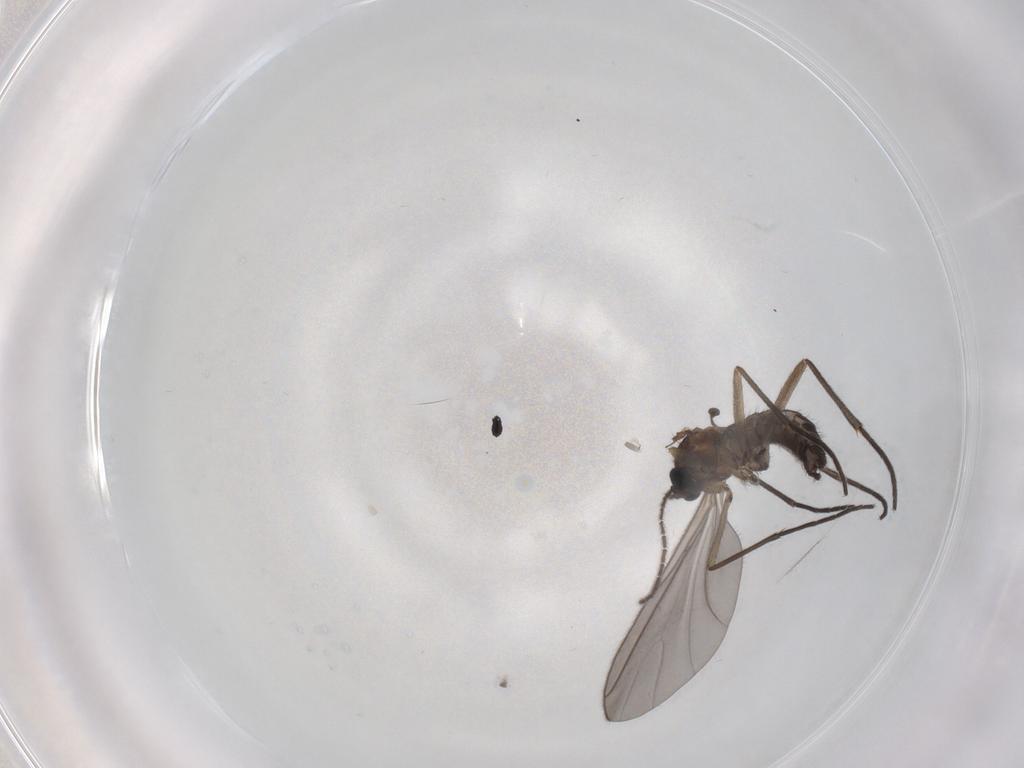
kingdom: Animalia
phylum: Arthropoda
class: Insecta
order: Diptera
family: Sciaridae
